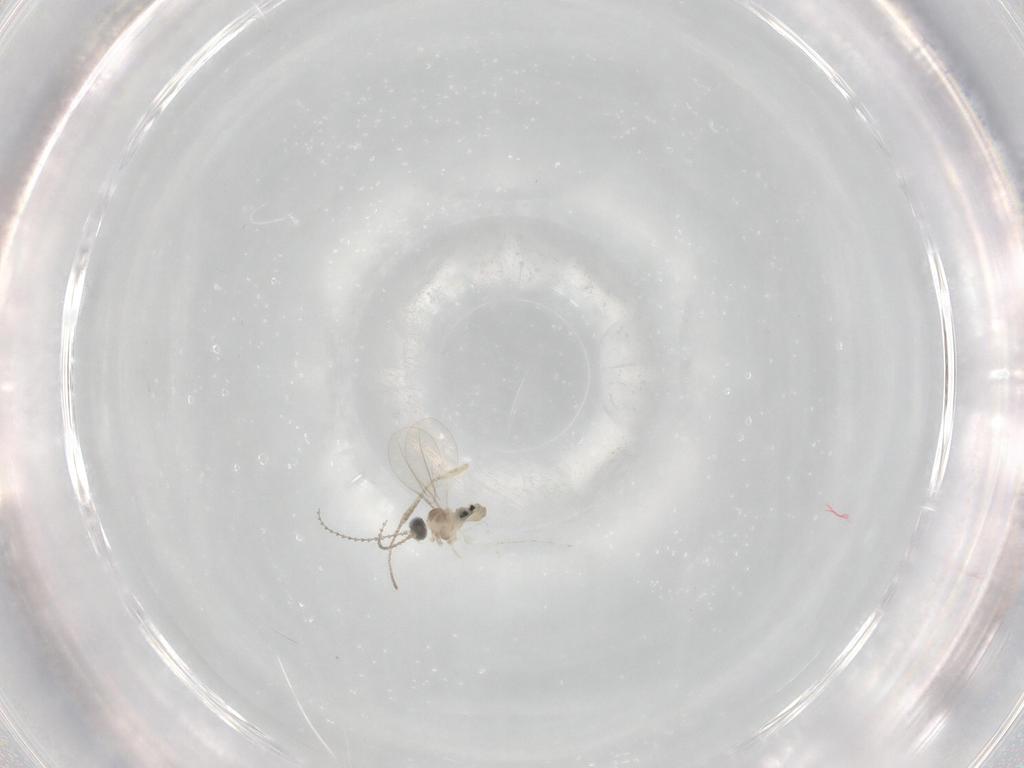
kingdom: Animalia
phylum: Arthropoda
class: Insecta
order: Diptera
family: Cecidomyiidae
